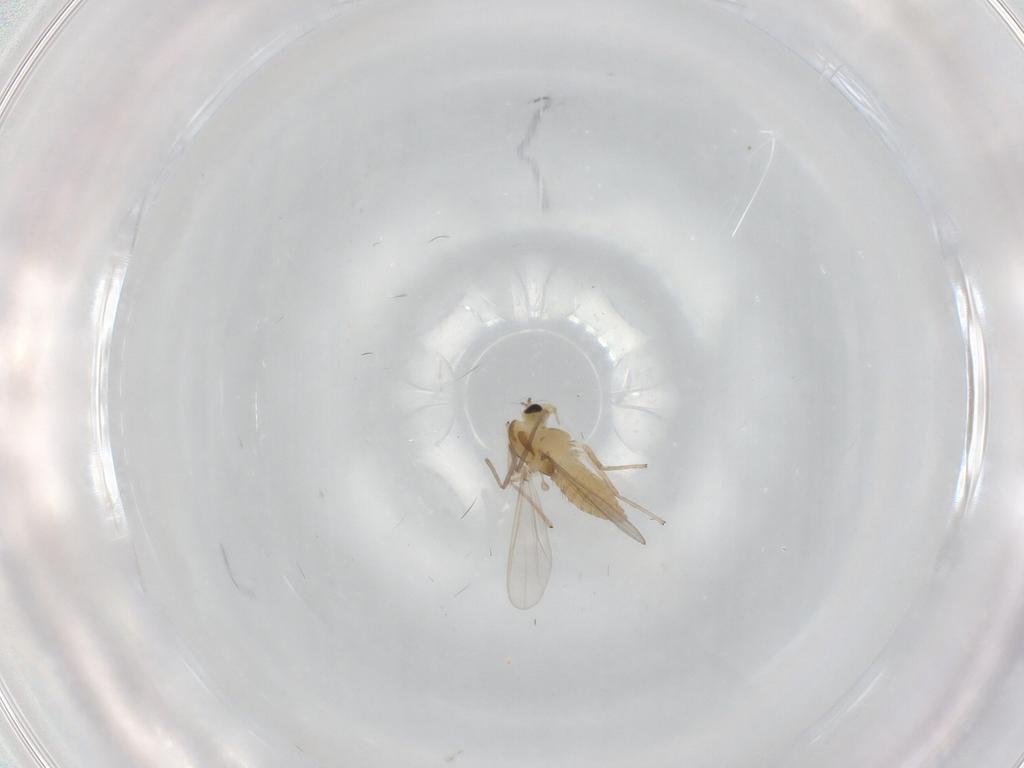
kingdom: Animalia
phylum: Arthropoda
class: Insecta
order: Diptera
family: Chironomidae
